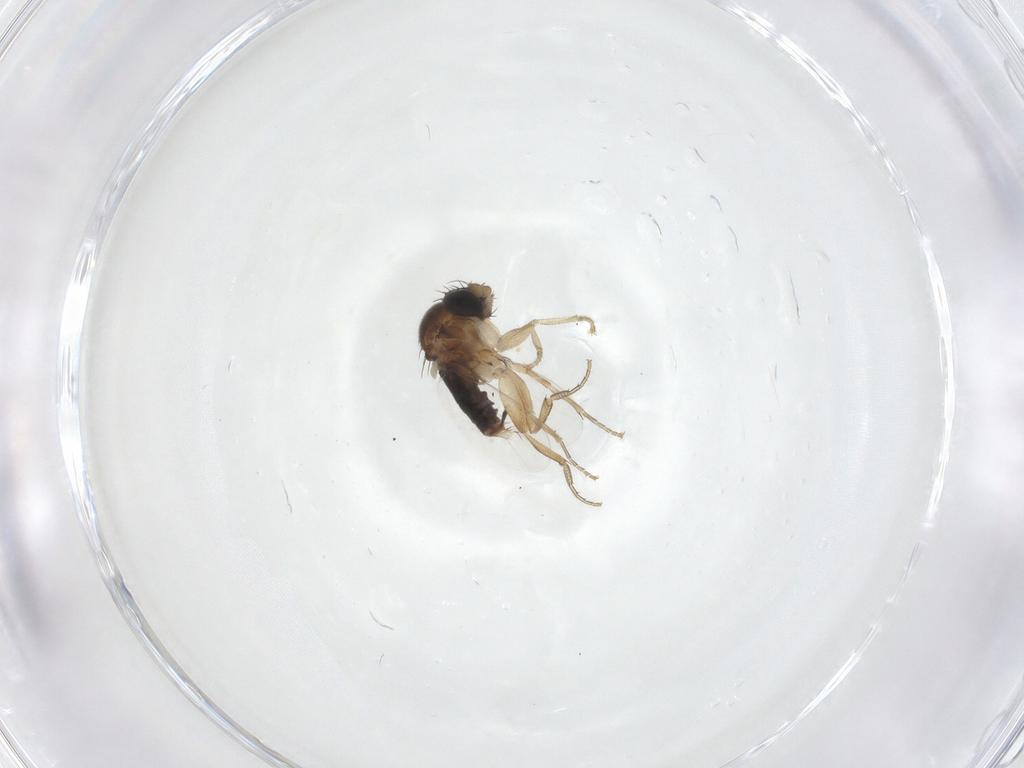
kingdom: Animalia
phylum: Arthropoda
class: Insecta
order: Diptera
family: Phoridae
